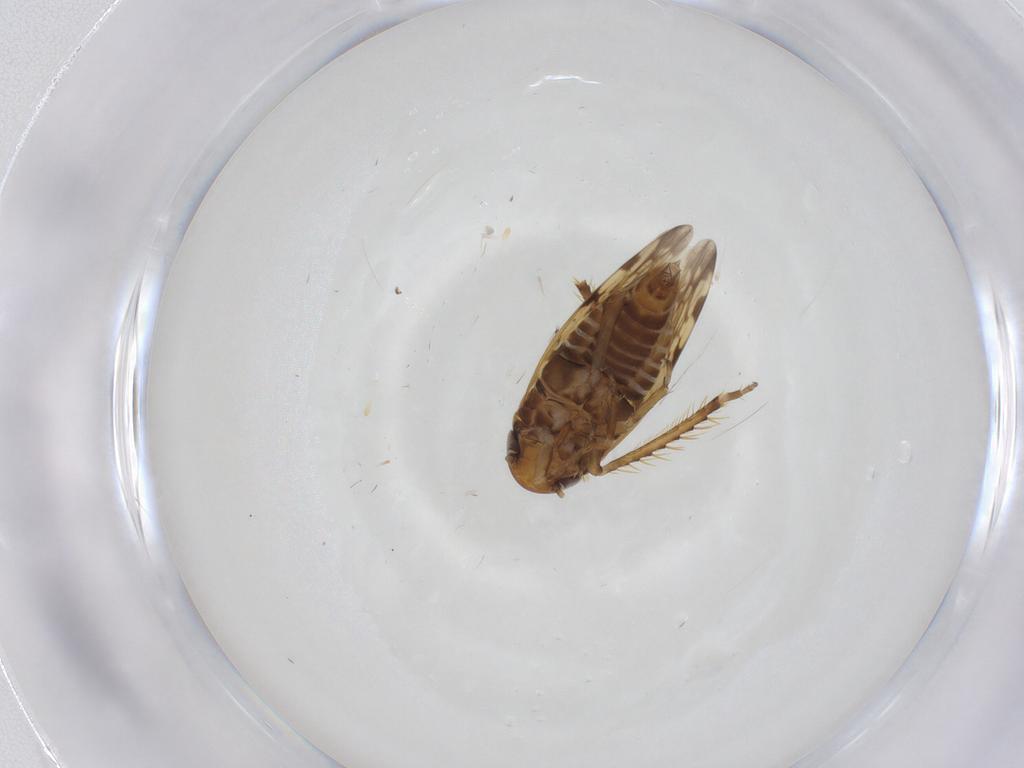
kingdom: Animalia
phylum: Arthropoda
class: Insecta
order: Hemiptera
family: Cicadellidae
